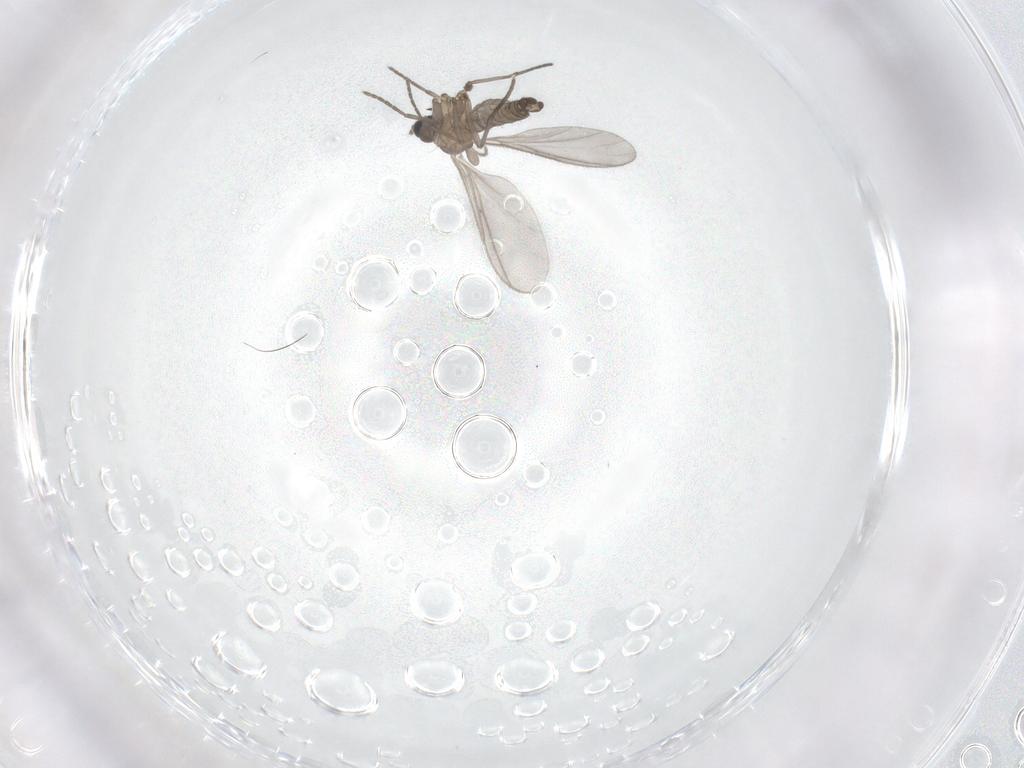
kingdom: Animalia
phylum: Arthropoda
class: Insecta
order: Diptera
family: Sciaridae
